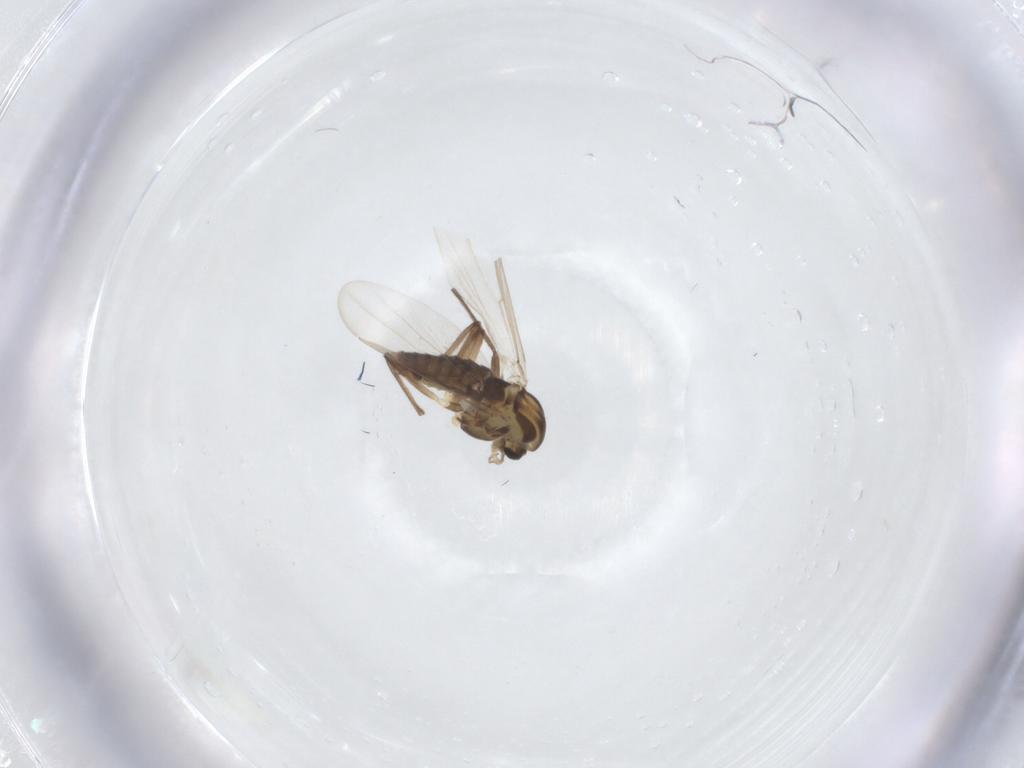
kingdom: Animalia
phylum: Arthropoda
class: Insecta
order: Diptera
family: Chironomidae
